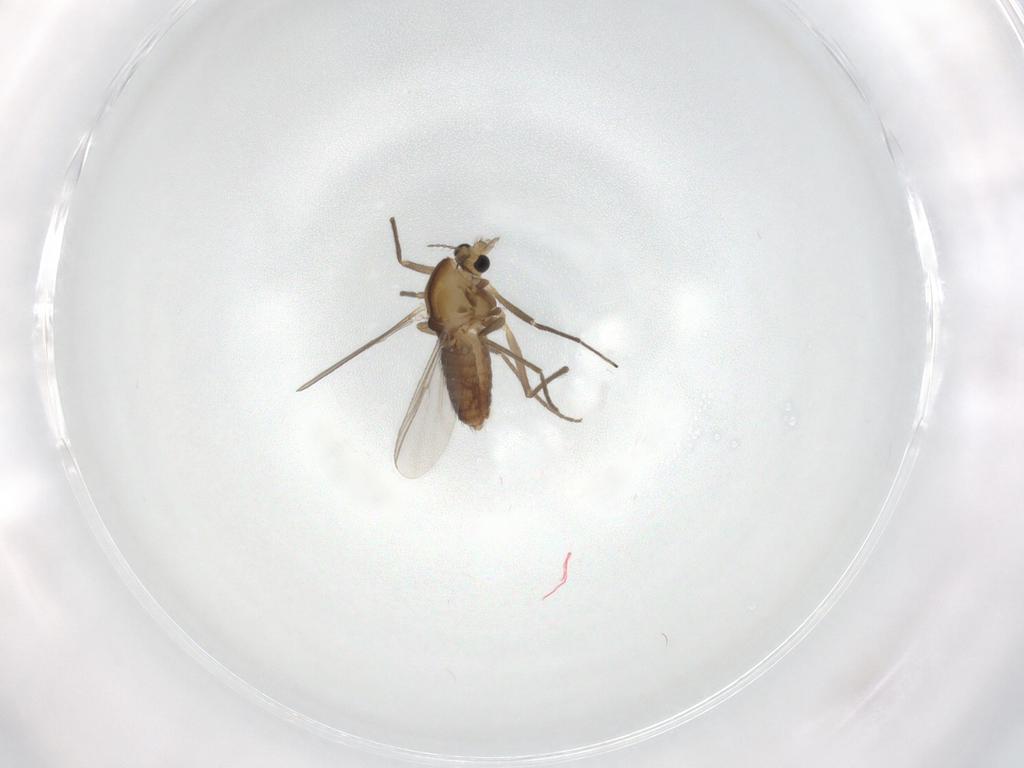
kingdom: Animalia
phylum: Arthropoda
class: Insecta
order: Diptera
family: Chironomidae
